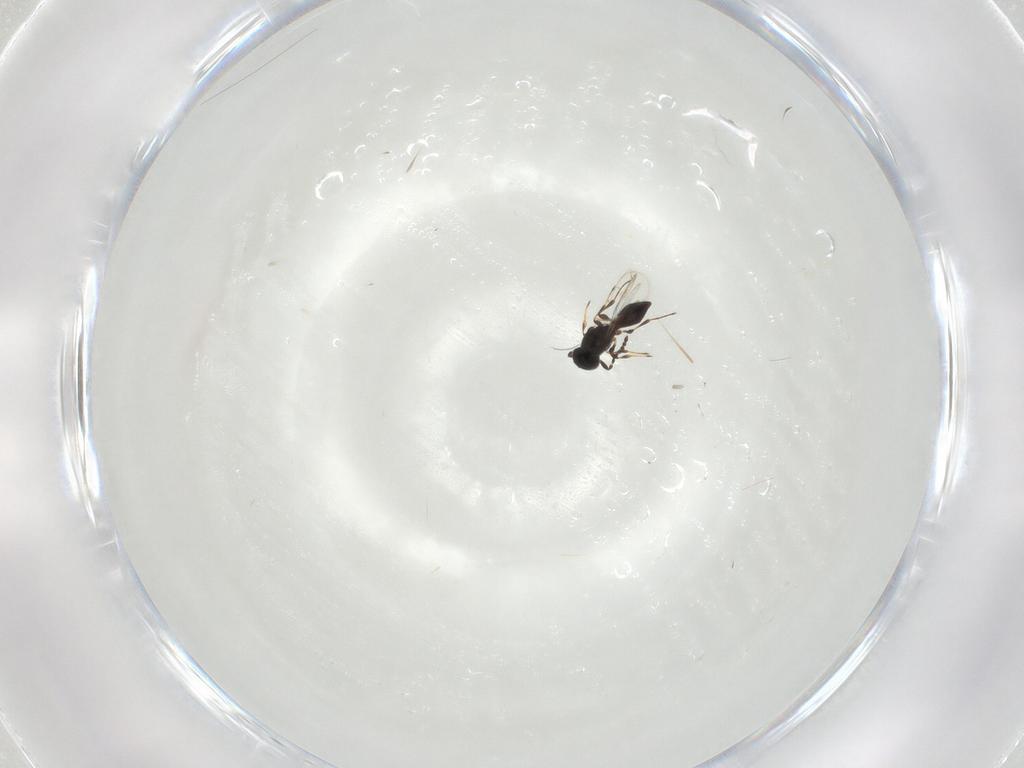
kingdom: Animalia
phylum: Arthropoda
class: Insecta
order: Hymenoptera
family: Platygastridae
